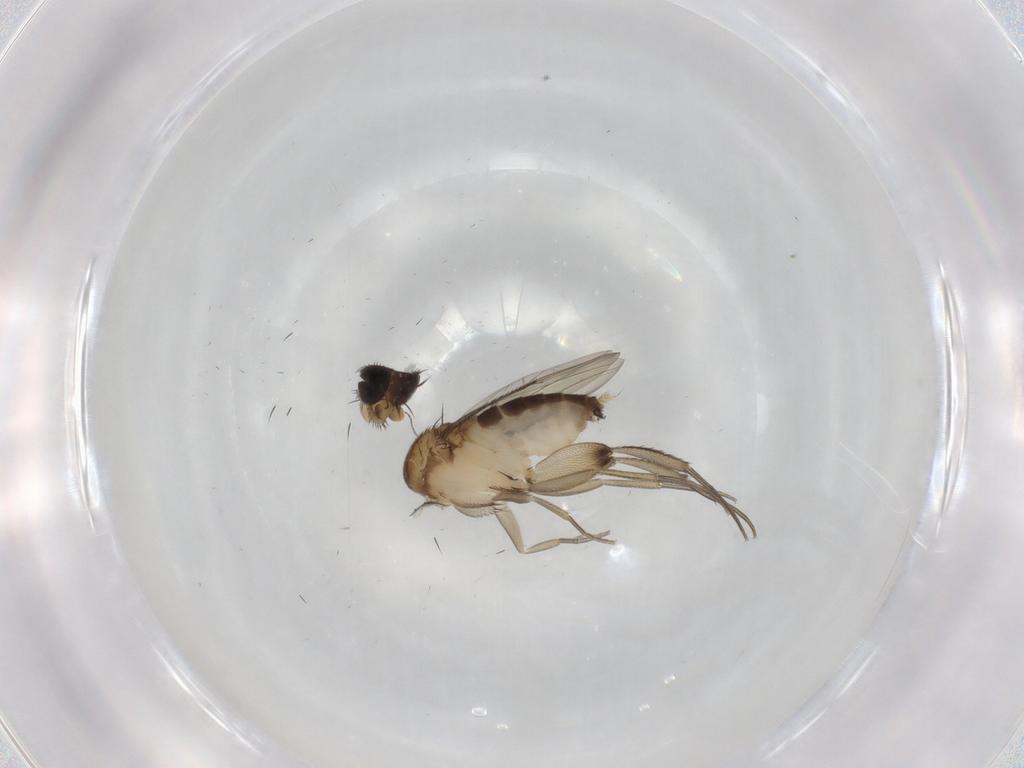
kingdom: Animalia
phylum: Arthropoda
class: Insecta
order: Diptera
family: Phoridae
